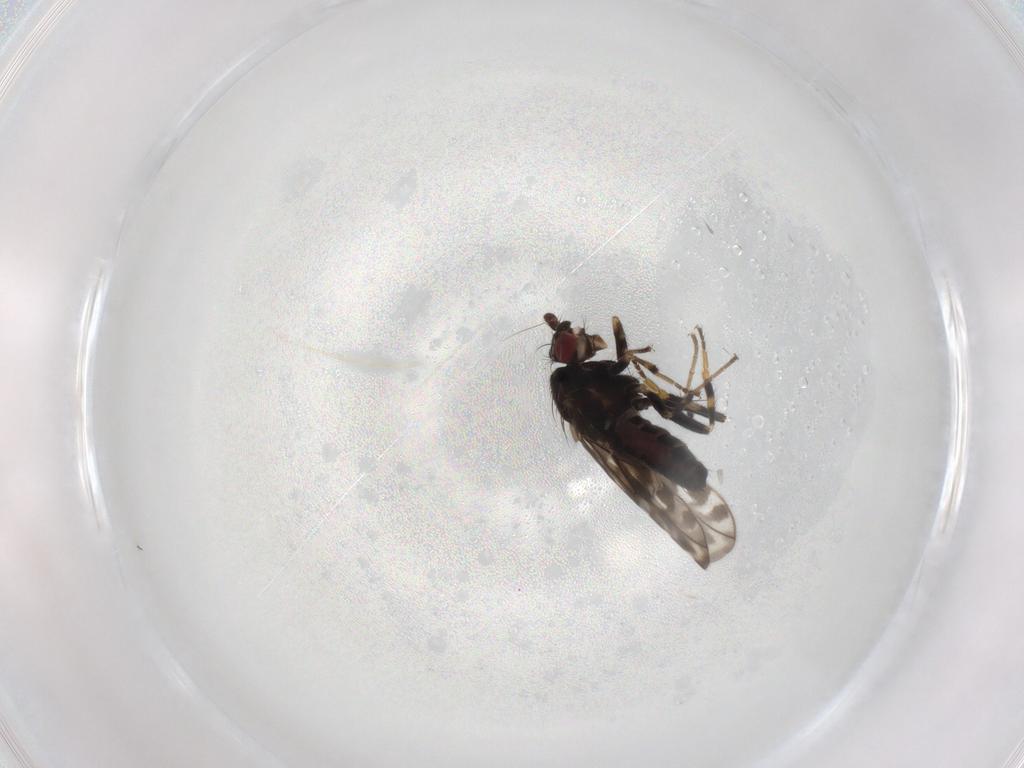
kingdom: Animalia
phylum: Arthropoda
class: Insecta
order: Diptera
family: Sphaeroceridae
